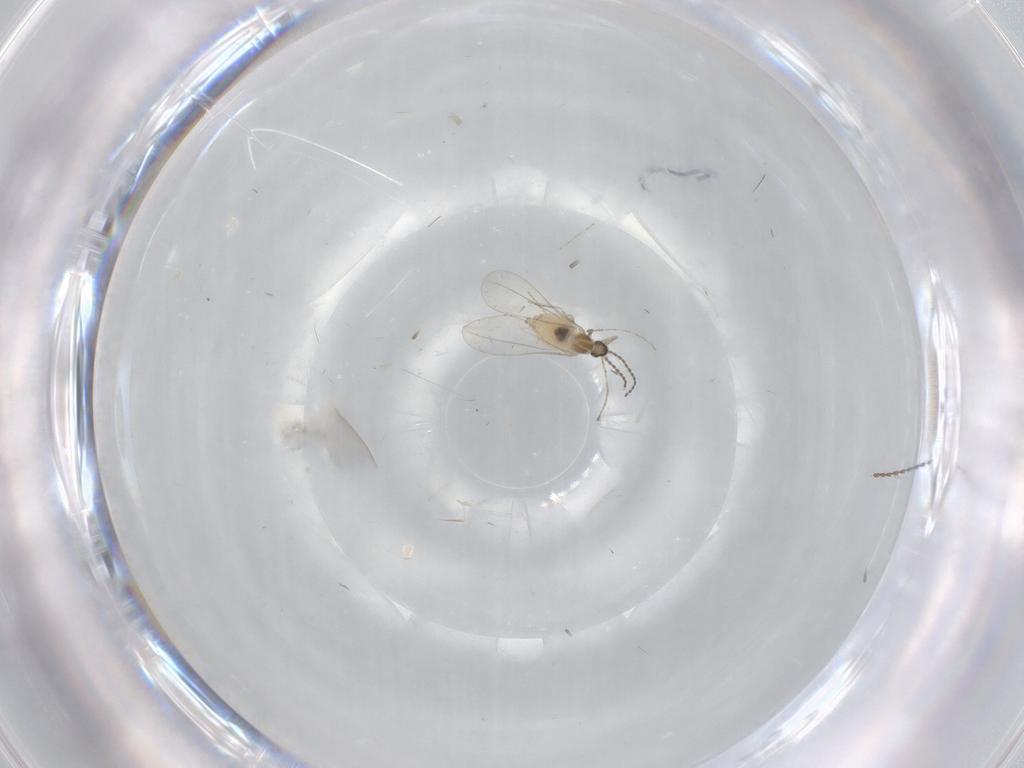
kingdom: Animalia
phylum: Arthropoda
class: Insecta
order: Diptera
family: Cecidomyiidae
